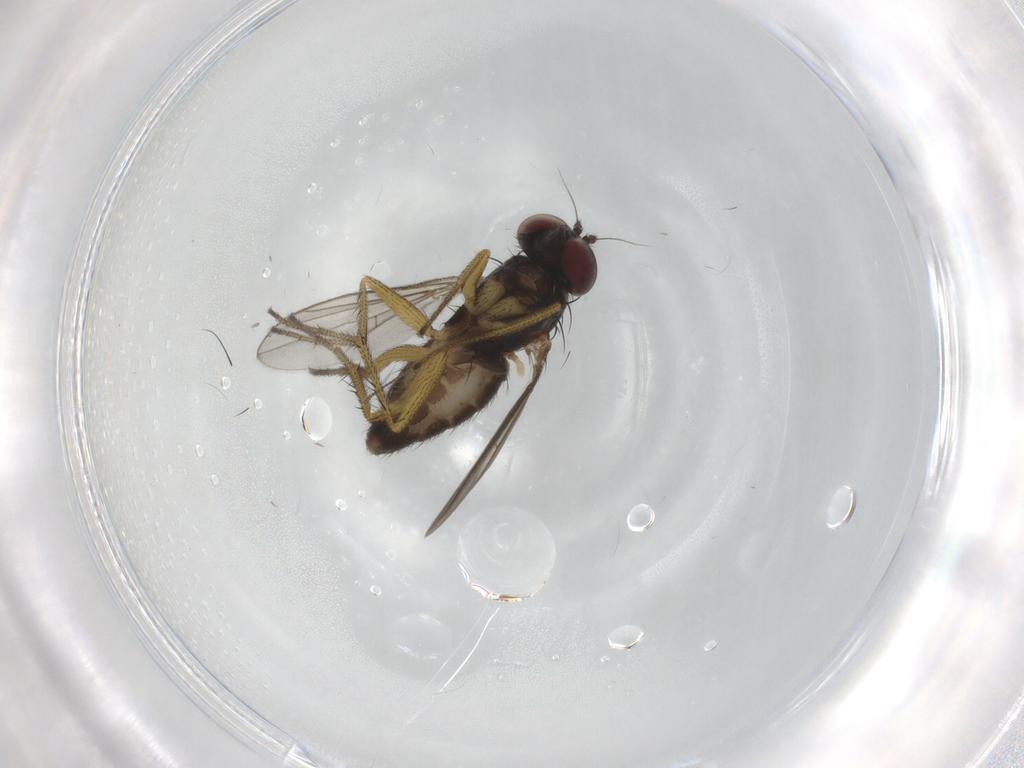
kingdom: Animalia
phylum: Arthropoda
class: Insecta
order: Diptera
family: Dolichopodidae
